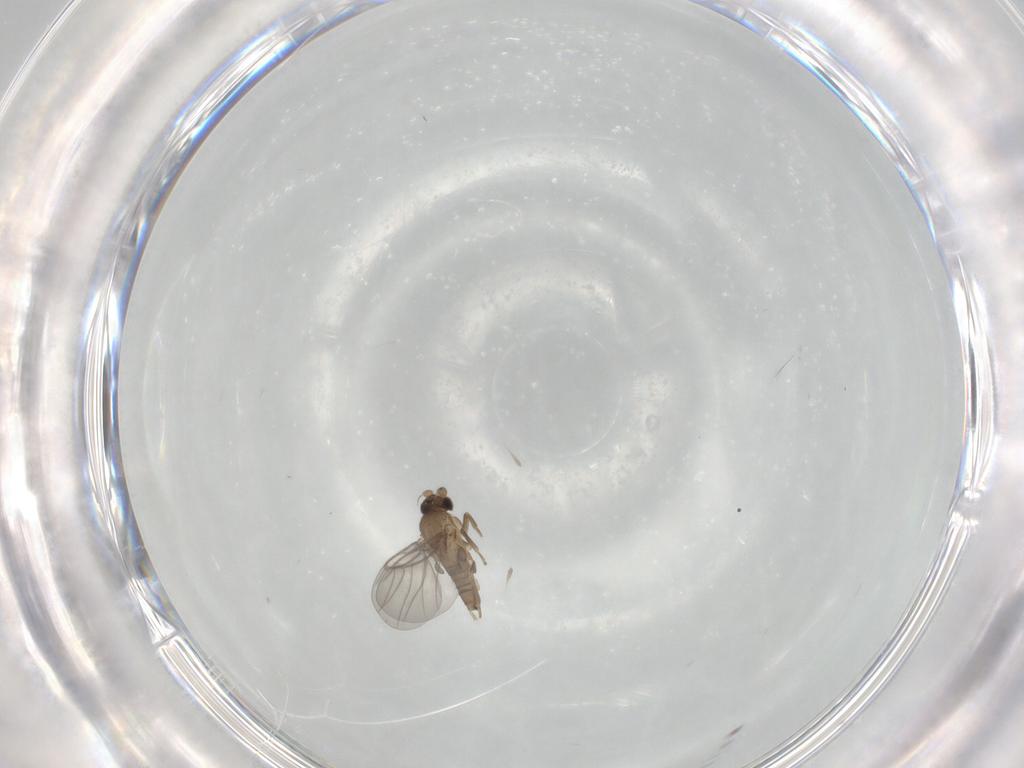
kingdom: Animalia
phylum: Arthropoda
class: Insecta
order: Diptera
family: Cecidomyiidae
